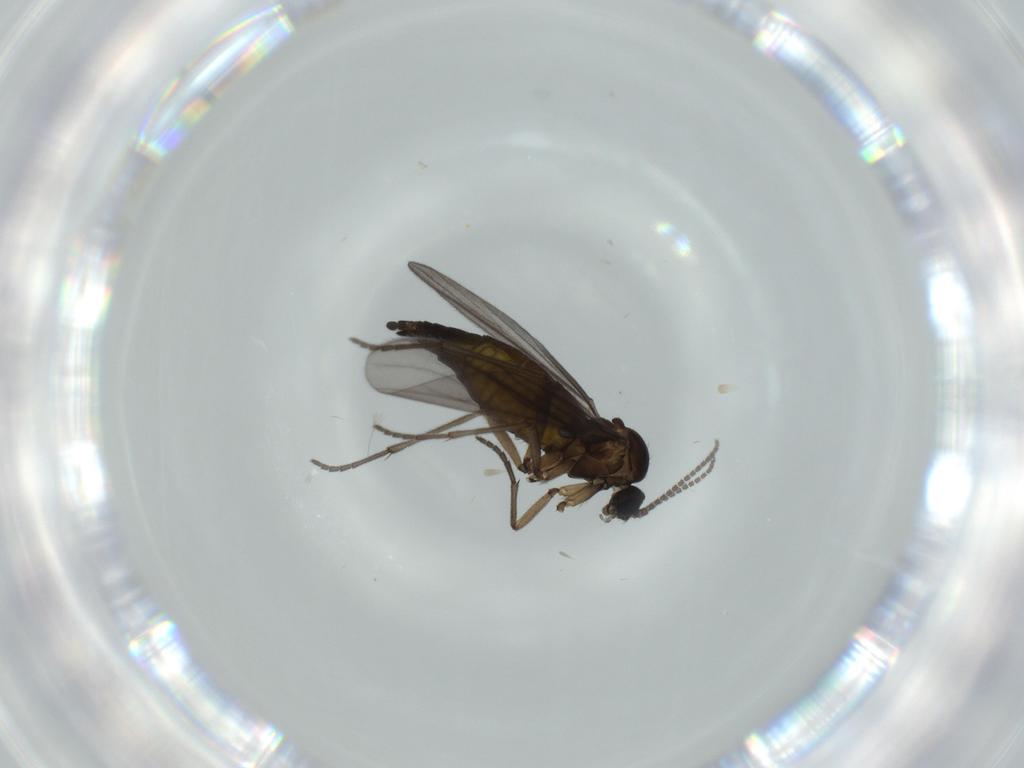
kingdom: Animalia
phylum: Arthropoda
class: Insecta
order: Diptera
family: Sciaridae
